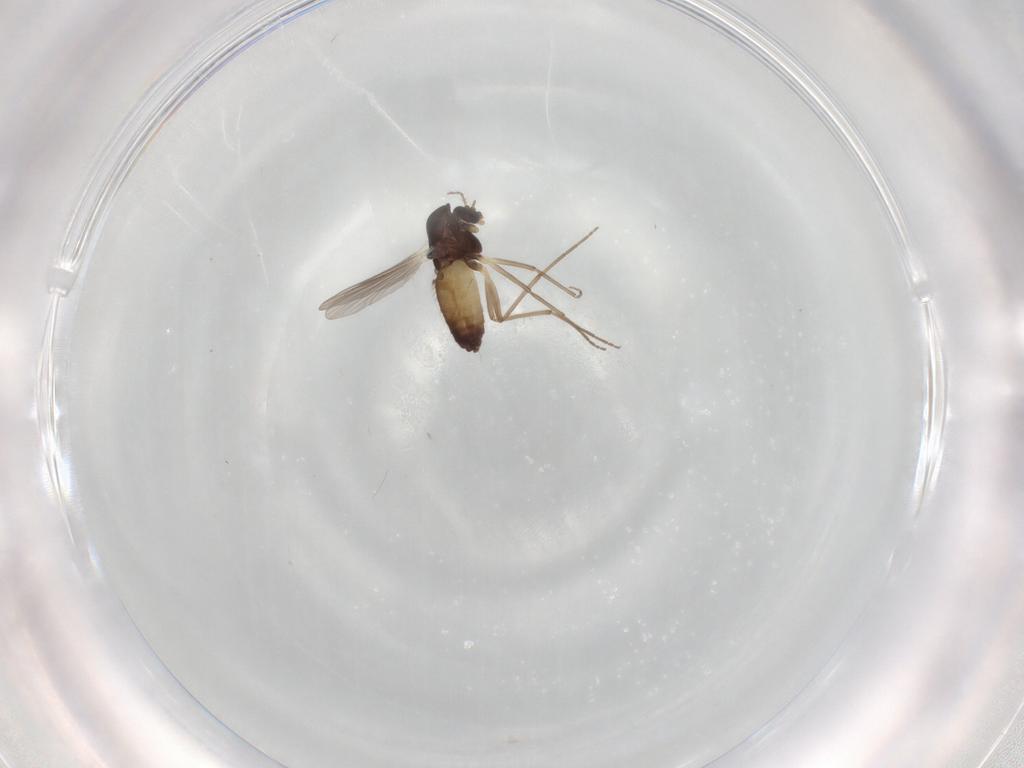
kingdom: Animalia
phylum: Arthropoda
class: Insecta
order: Diptera
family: Chironomidae
